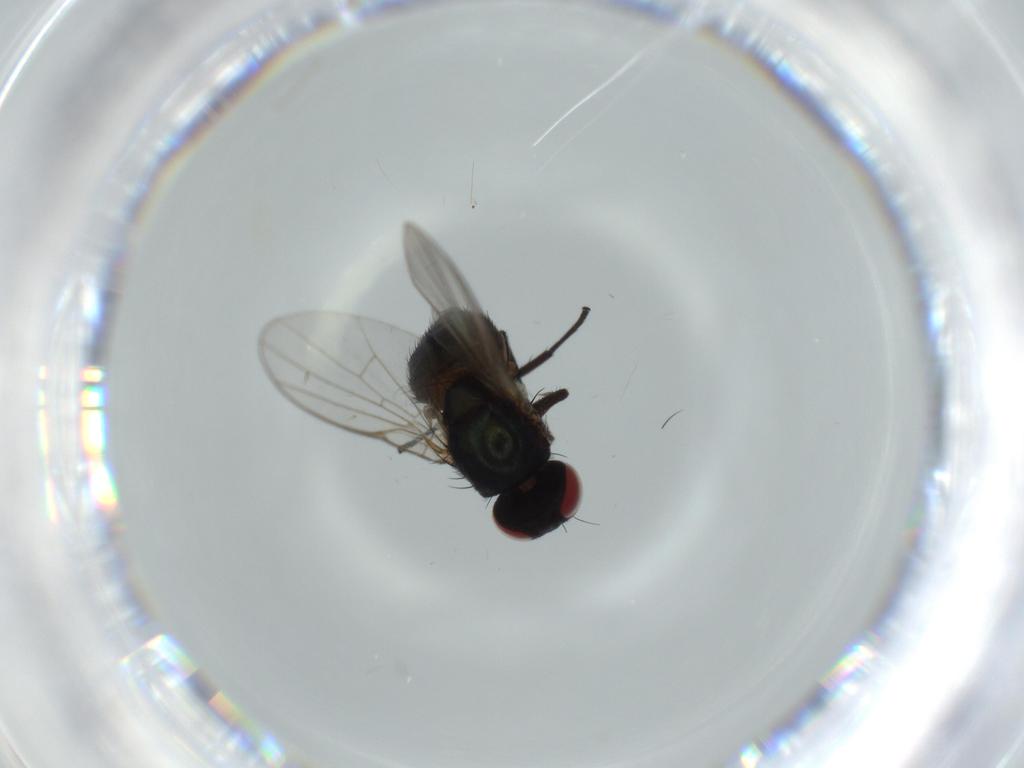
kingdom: Animalia
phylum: Arthropoda
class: Insecta
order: Diptera
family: Agromyzidae
